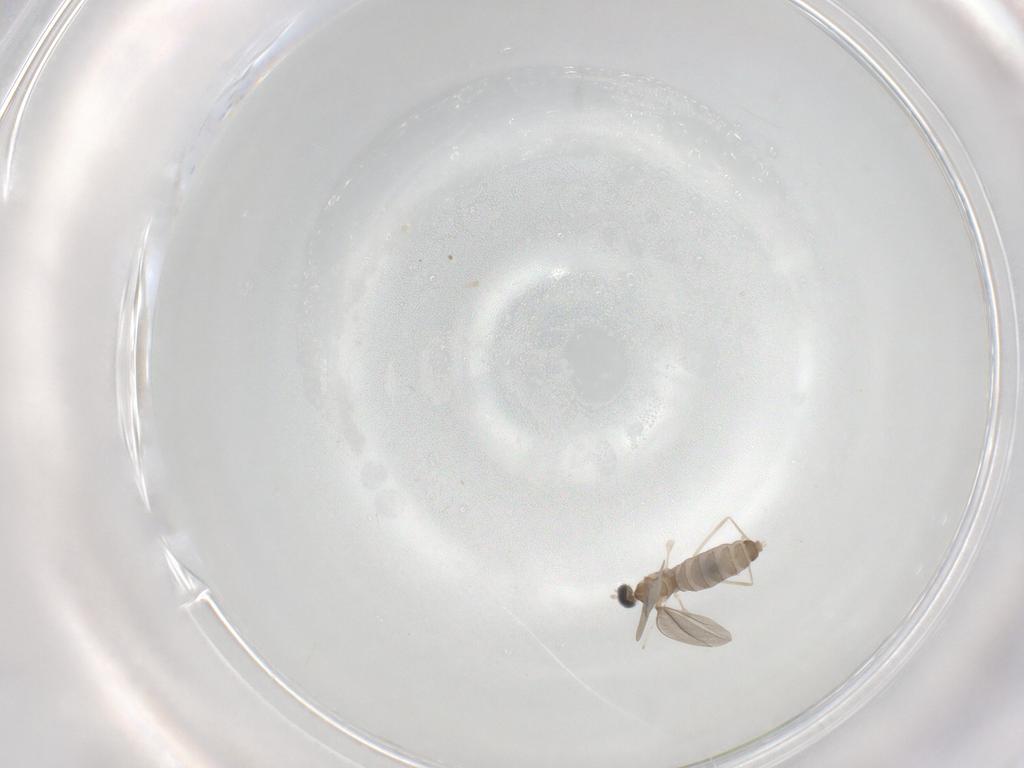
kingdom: Animalia
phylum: Arthropoda
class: Insecta
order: Diptera
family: Cecidomyiidae
